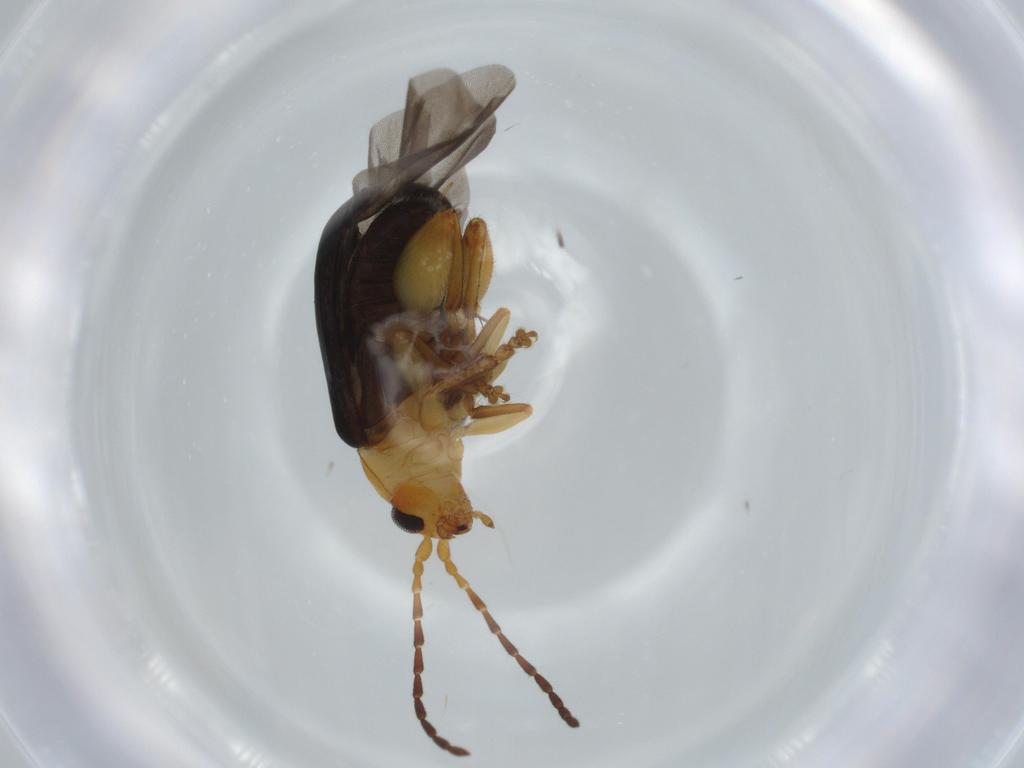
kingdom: Animalia
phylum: Arthropoda
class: Insecta
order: Coleoptera
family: Chrysomelidae
